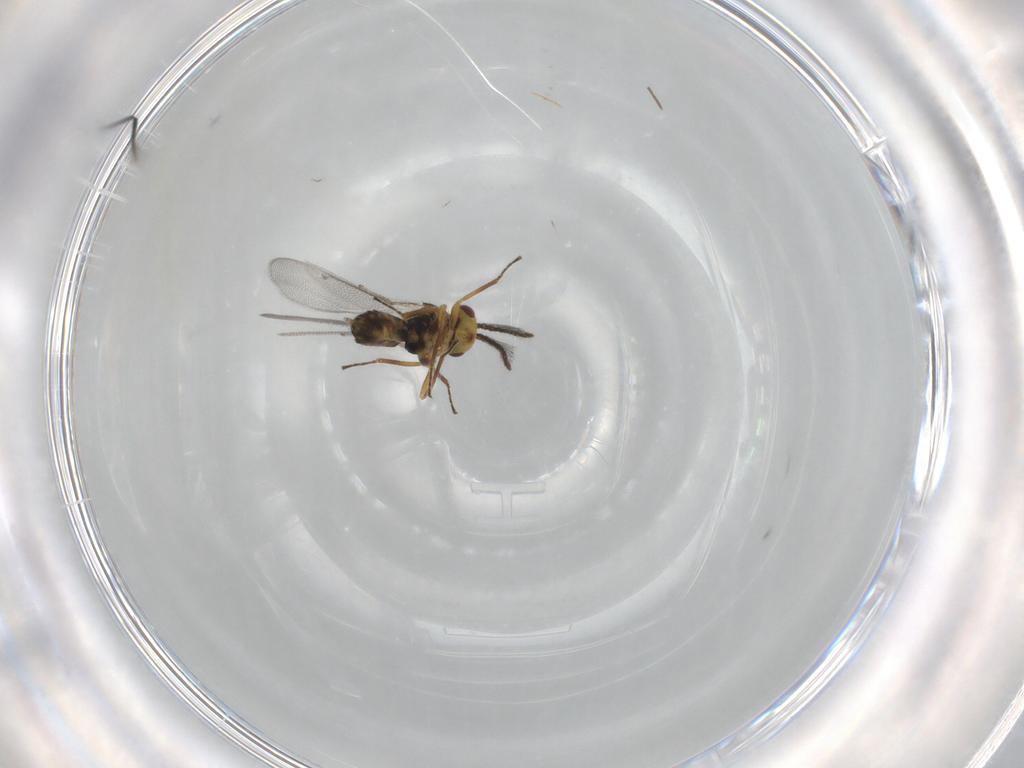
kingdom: Animalia
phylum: Arthropoda
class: Insecta
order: Hymenoptera
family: Eulophidae
